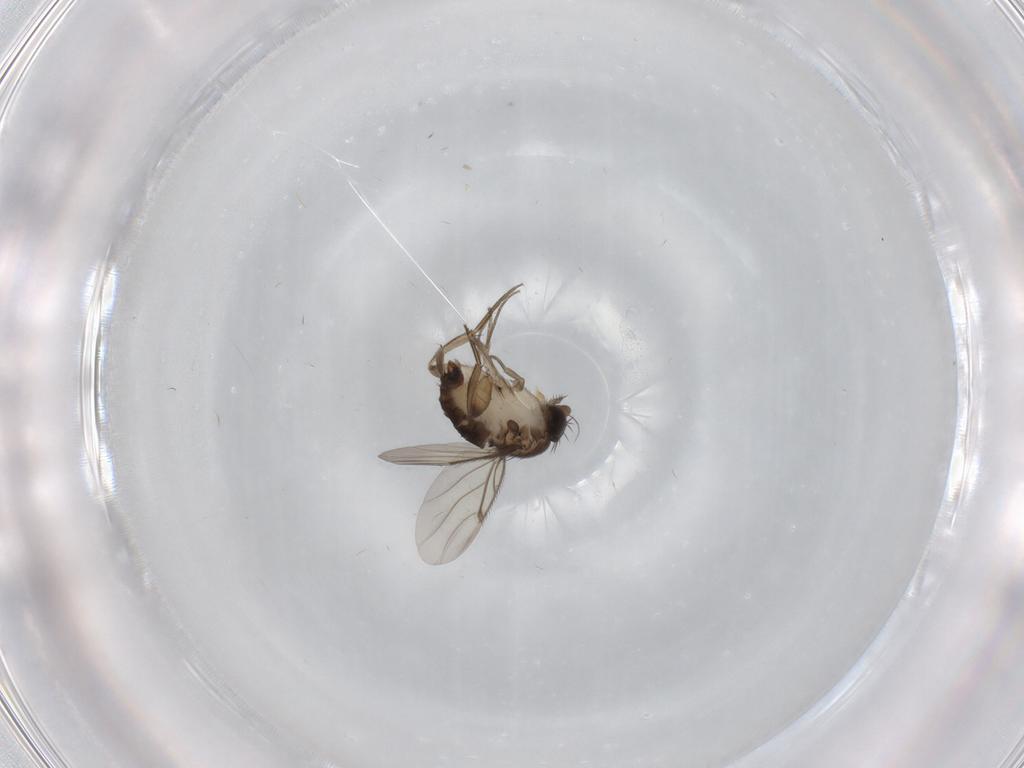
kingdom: Animalia
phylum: Arthropoda
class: Insecta
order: Diptera
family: Phoridae
